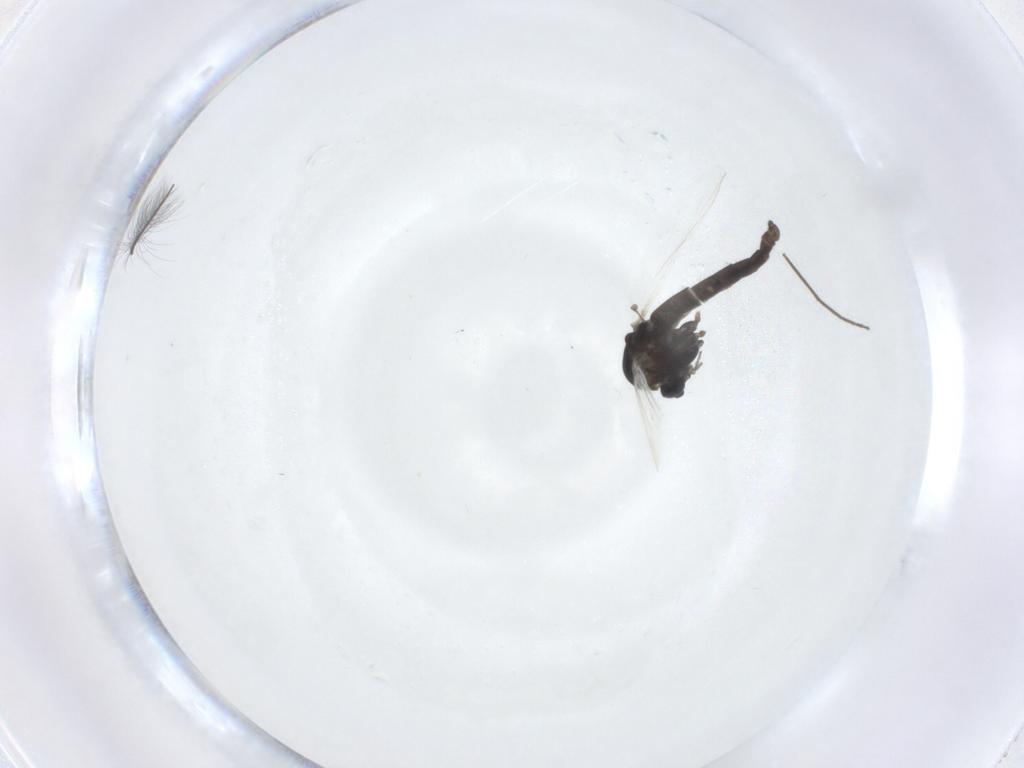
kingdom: Animalia
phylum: Arthropoda
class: Insecta
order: Diptera
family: Chironomidae
